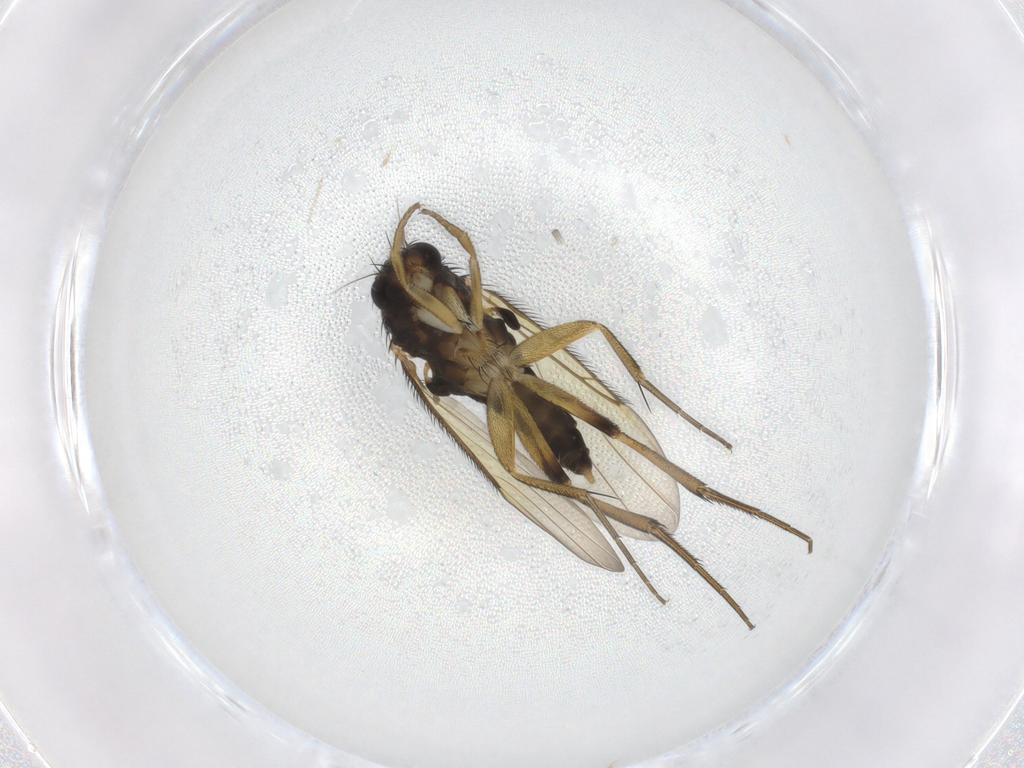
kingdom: Animalia
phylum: Arthropoda
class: Insecta
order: Diptera
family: Phoridae
